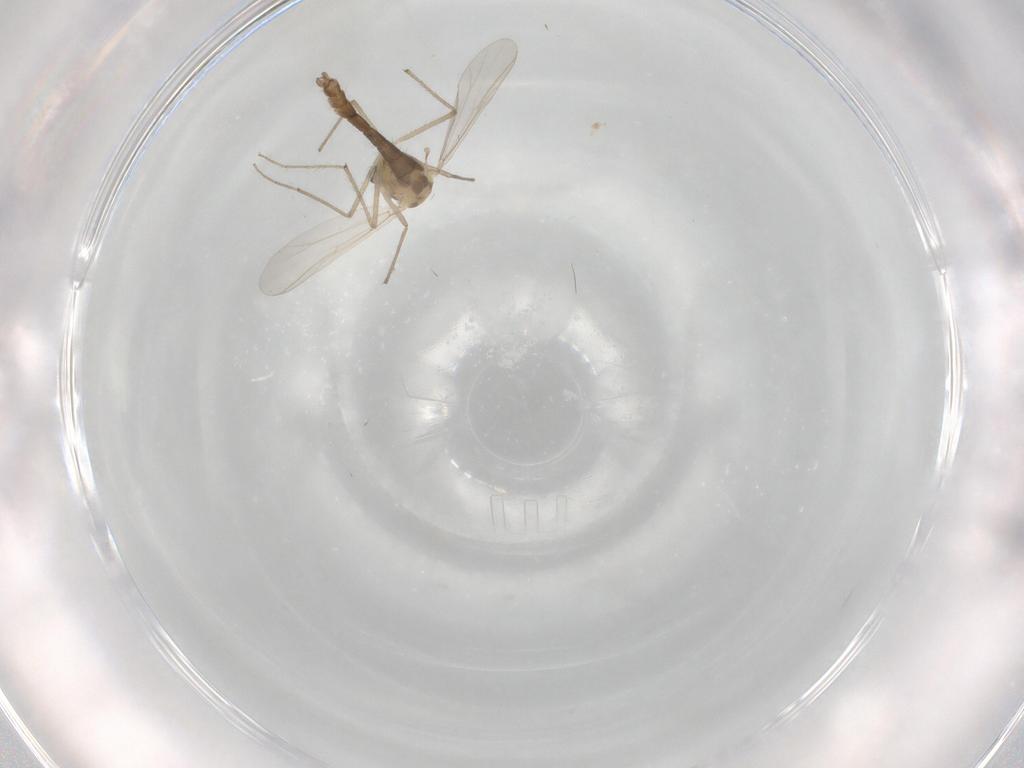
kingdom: Animalia
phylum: Arthropoda
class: Insecta
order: Diptera
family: Chironomidae
